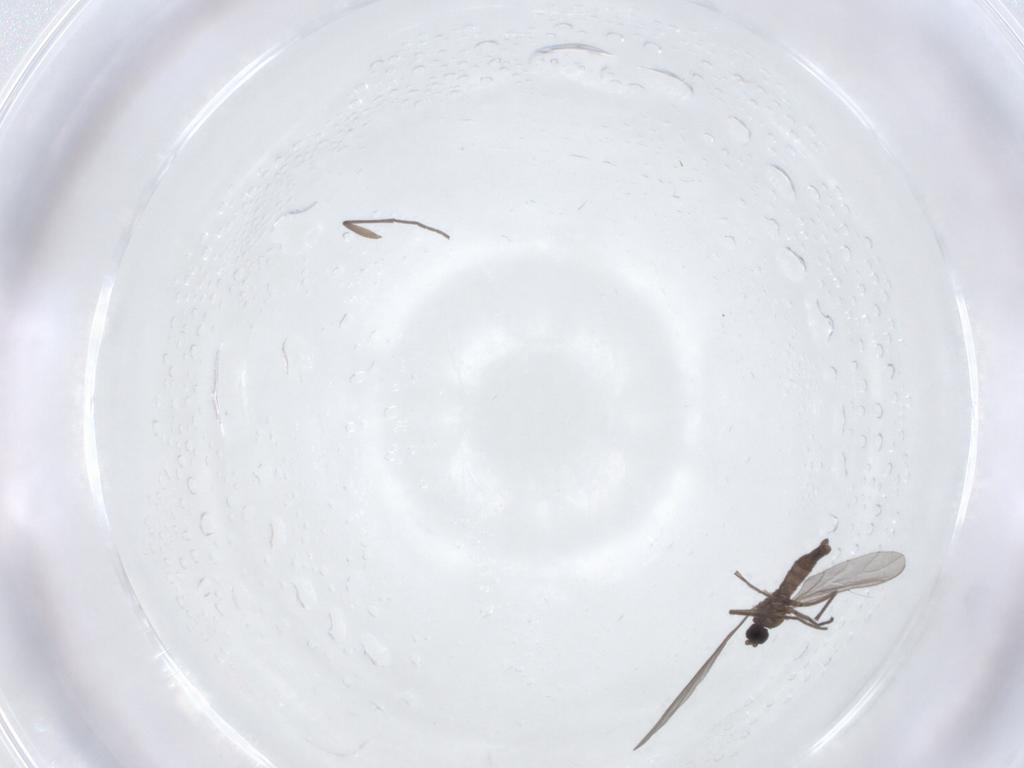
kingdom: Animalia
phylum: Arthropoda
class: Insecta
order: Diptera
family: Sciaridae
